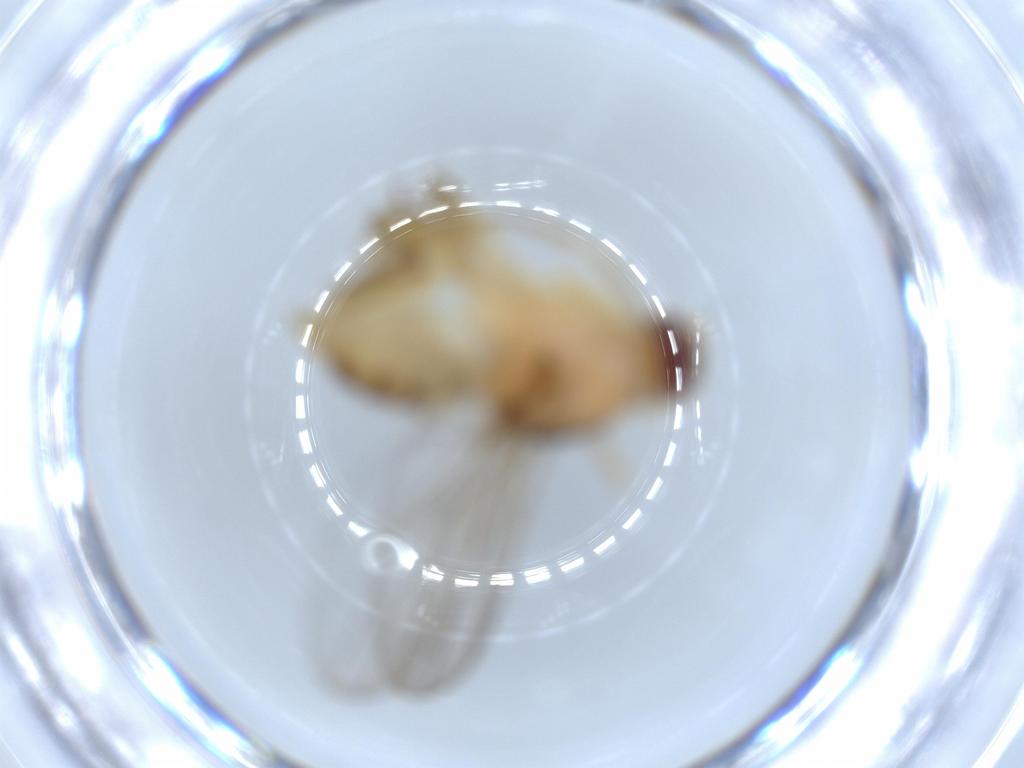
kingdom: Animalia
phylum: Arthropoda
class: Insecta
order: Diptera
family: Chloropidae
